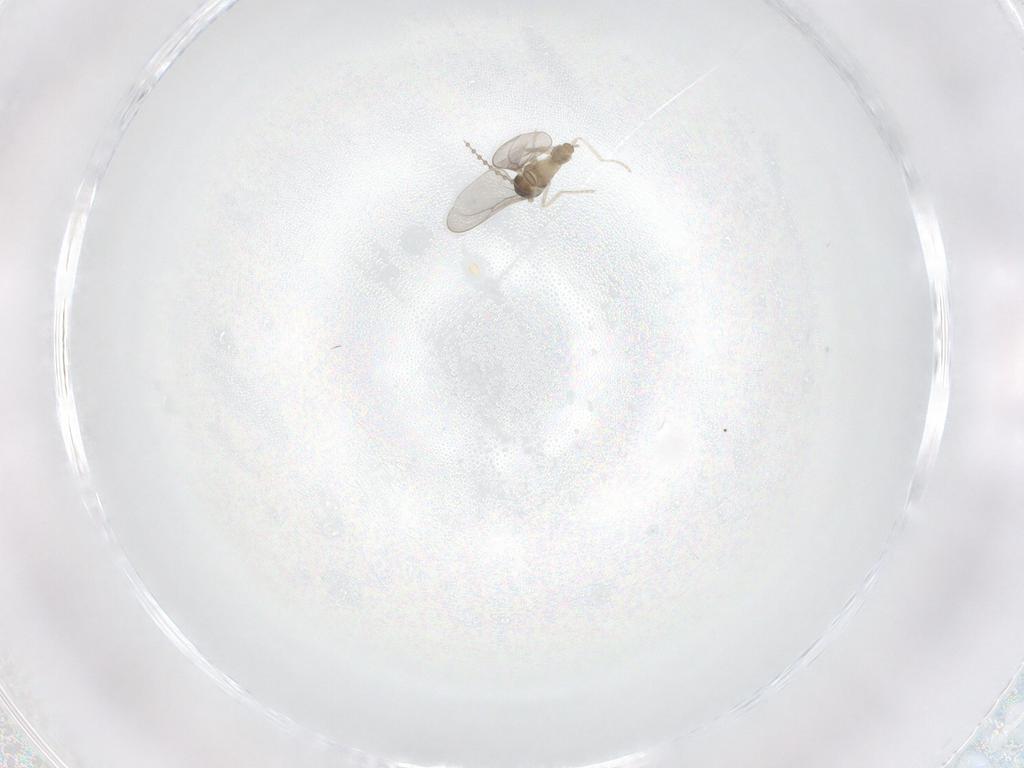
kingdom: Animalia
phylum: Arthropoda
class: Insecta
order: Diptera
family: Cecidomyiidae
